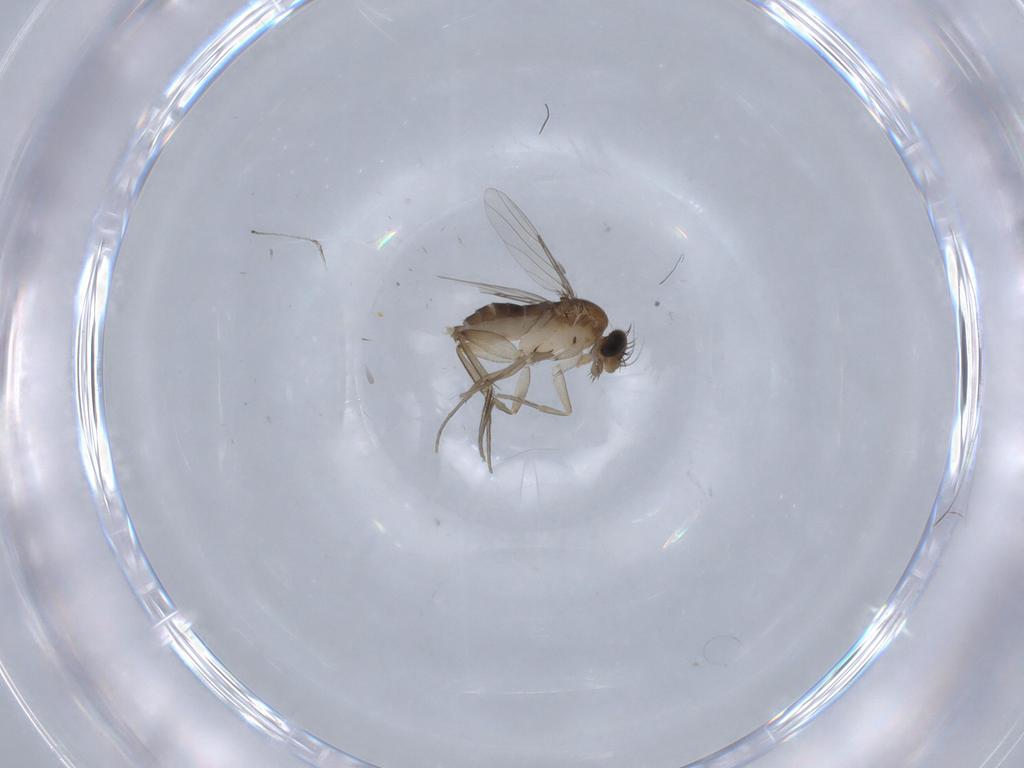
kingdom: Animalia
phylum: Arthropoda
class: Insecta
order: Diptera
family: Phoridae
